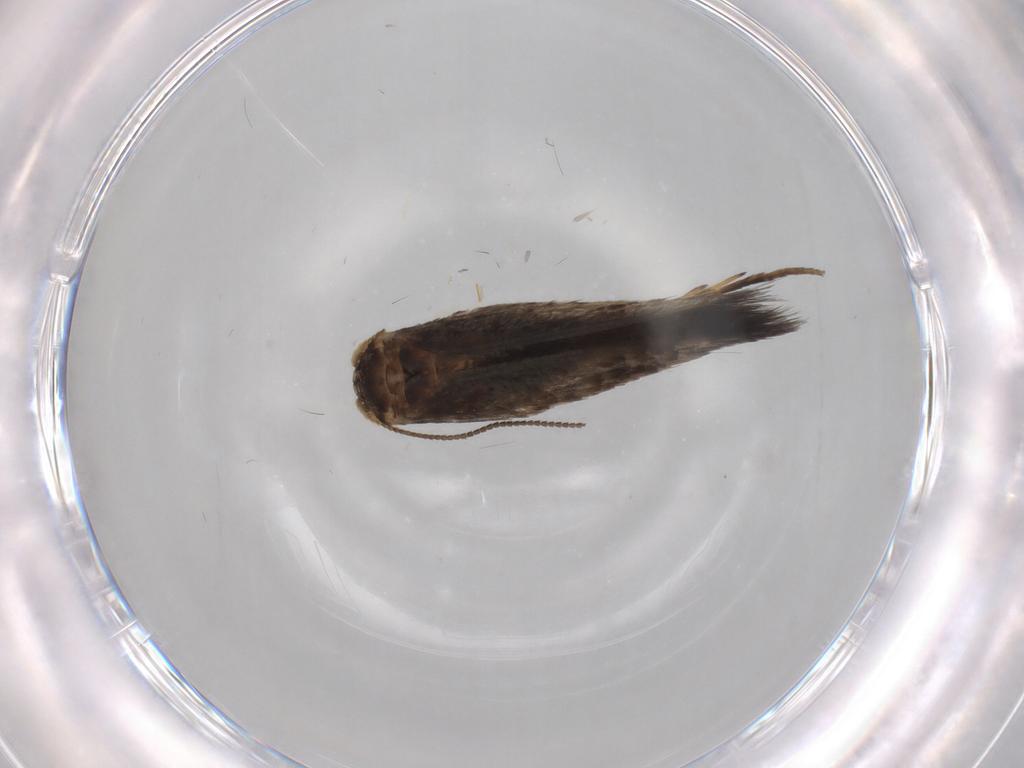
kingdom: Animalia
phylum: Arthropoda
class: Insecta
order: Lepidoptera
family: Nepticulidae
